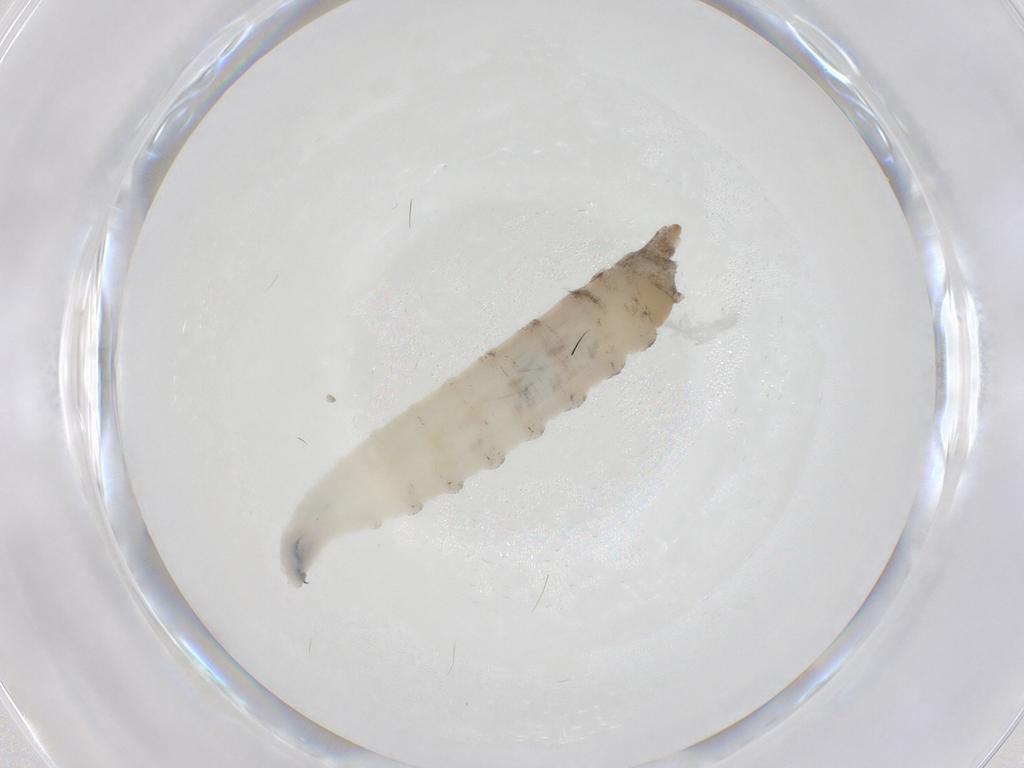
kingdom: Animalia
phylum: Arthropoda
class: Insecta
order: Diptera
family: Drosophilidae
